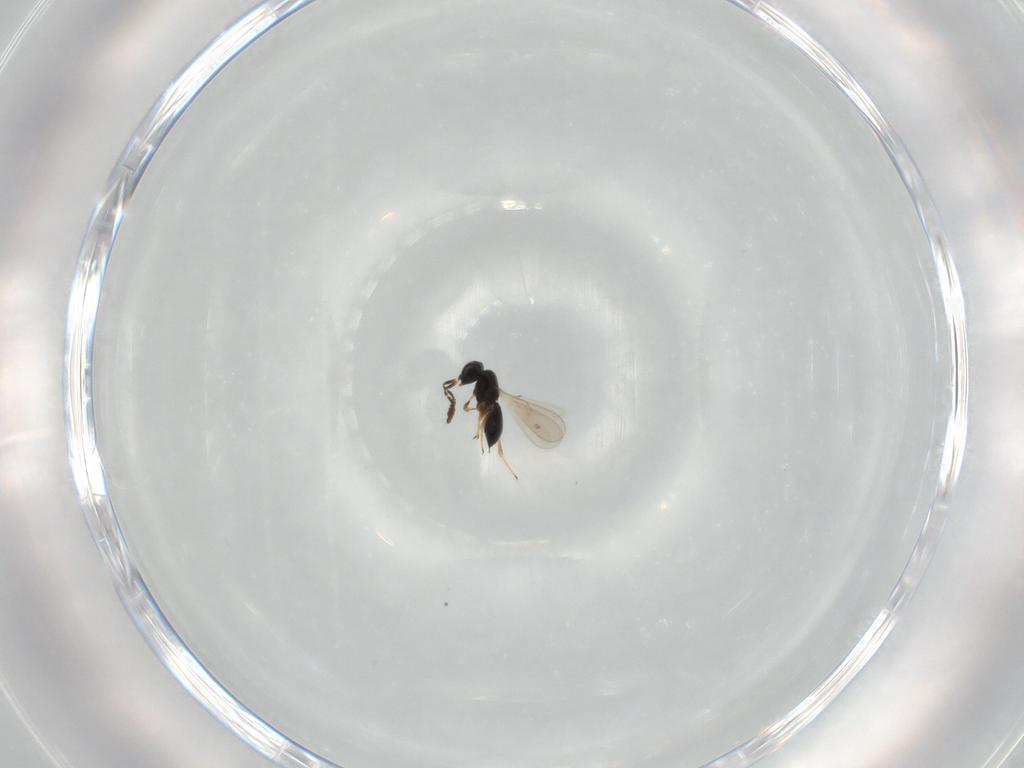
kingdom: Animalia
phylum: Arthropoda
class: Insecta
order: Hymenoptera
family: Scelionidae
